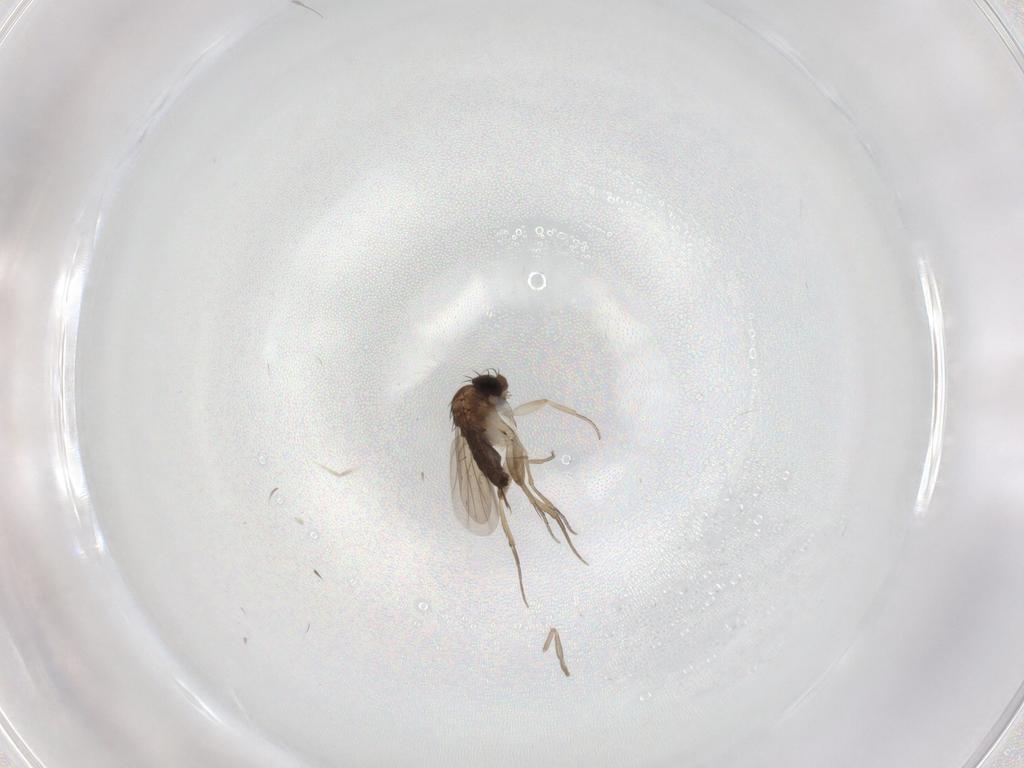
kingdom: Animalia
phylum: Arthropoda
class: Insecta
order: Diptera
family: Phoridae
